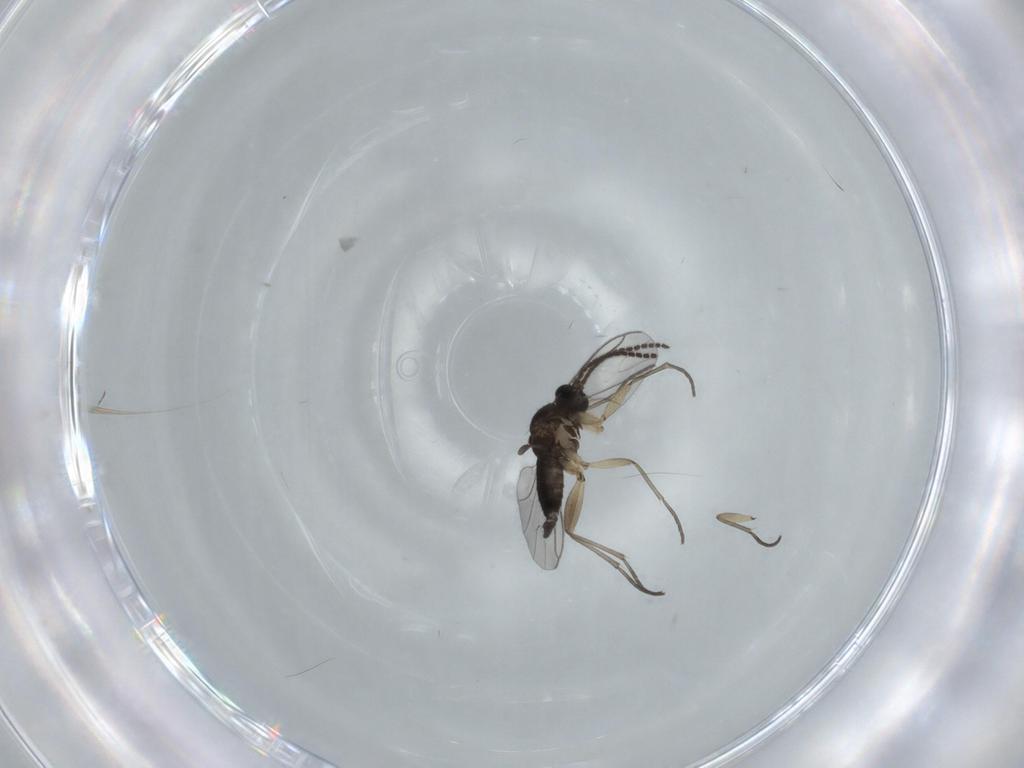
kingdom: Animalia
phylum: Arthropoda
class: Insecta
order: Diptera
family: Sciaridae
